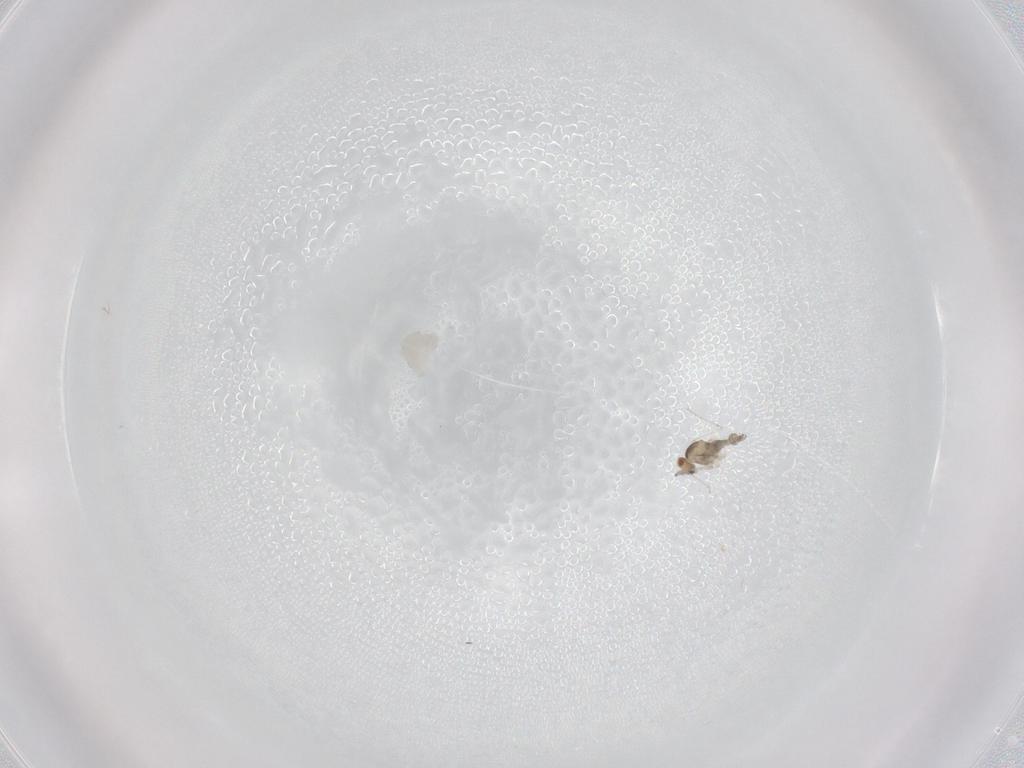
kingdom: Animalia
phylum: Arthropoda
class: Insecta
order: Diptera
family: Cecidomyiidae
